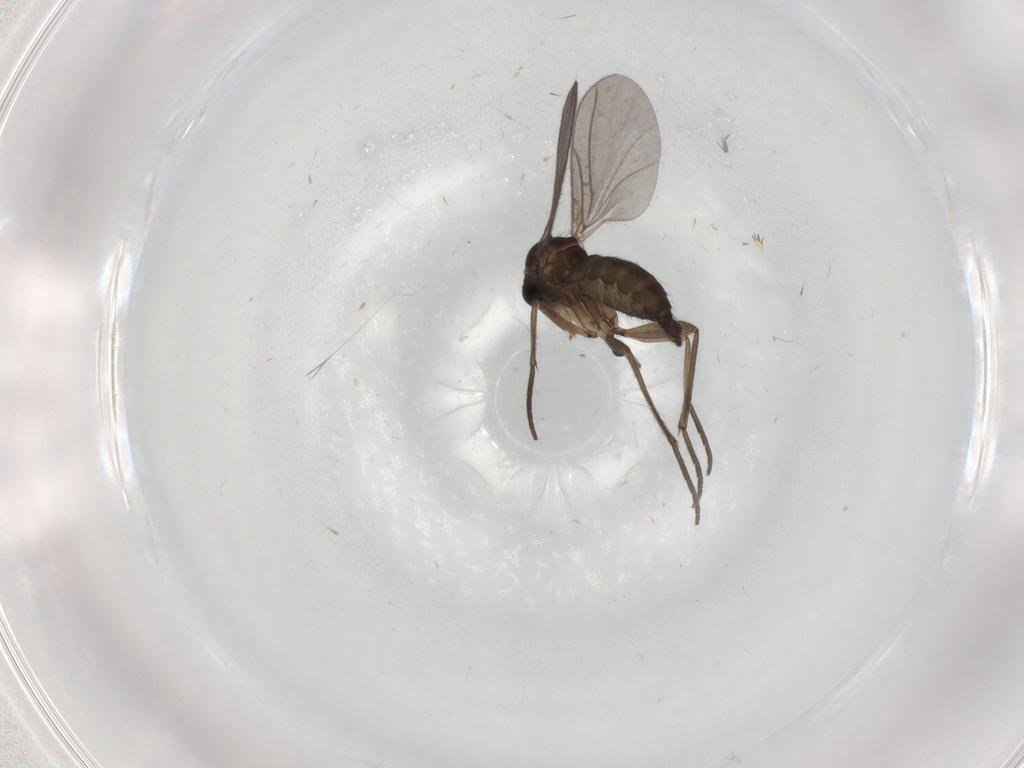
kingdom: Animalia
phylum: Arthropoda
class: Insecta
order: Diptera
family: Sciaridae
